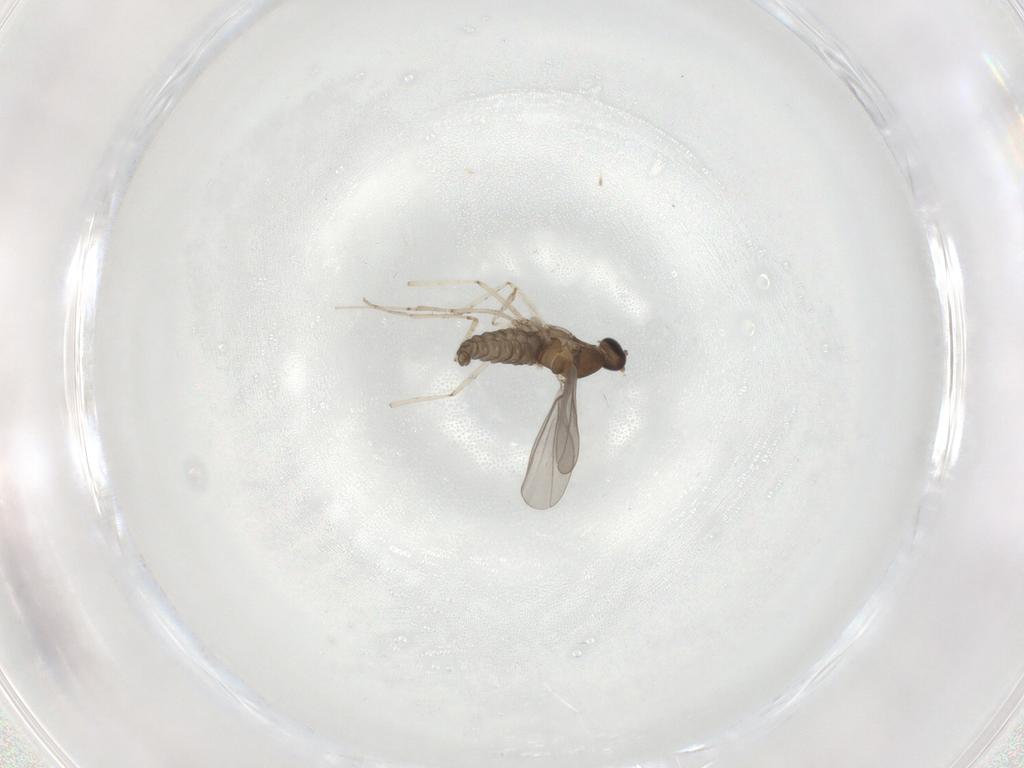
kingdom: Animalia
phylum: Arthropoda
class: Insecta
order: Diptera
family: Cecidomyiidae
